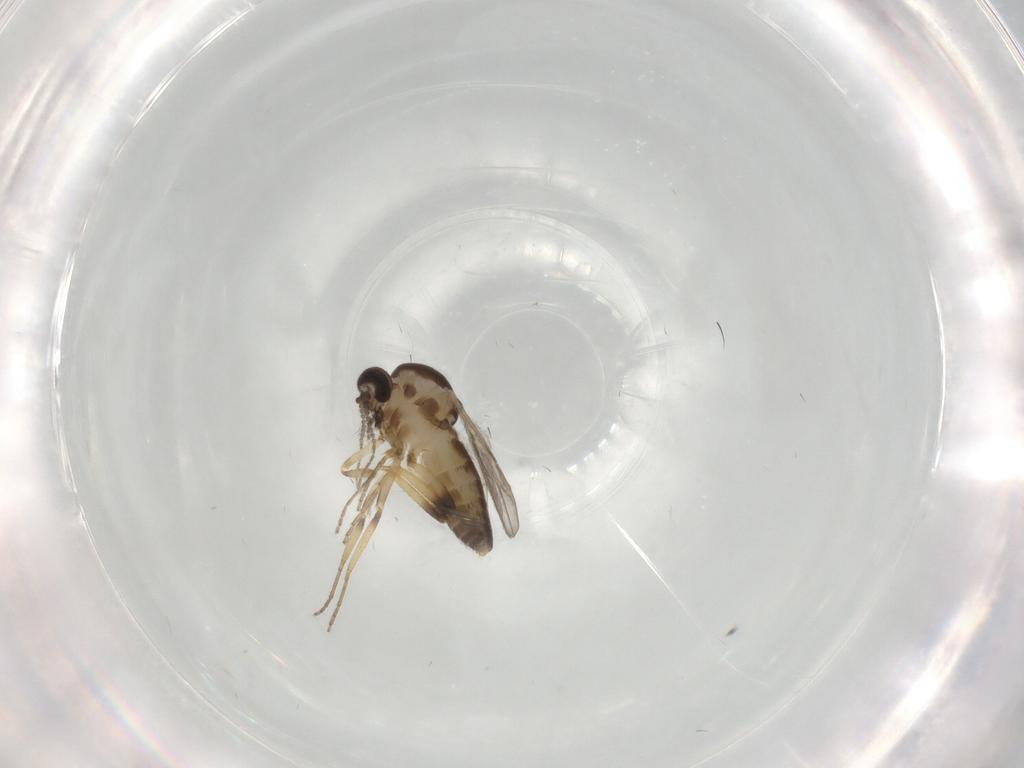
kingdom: Animalia
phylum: Arthropoda
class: Insecta
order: Diptera
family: Ceratopogonidae
